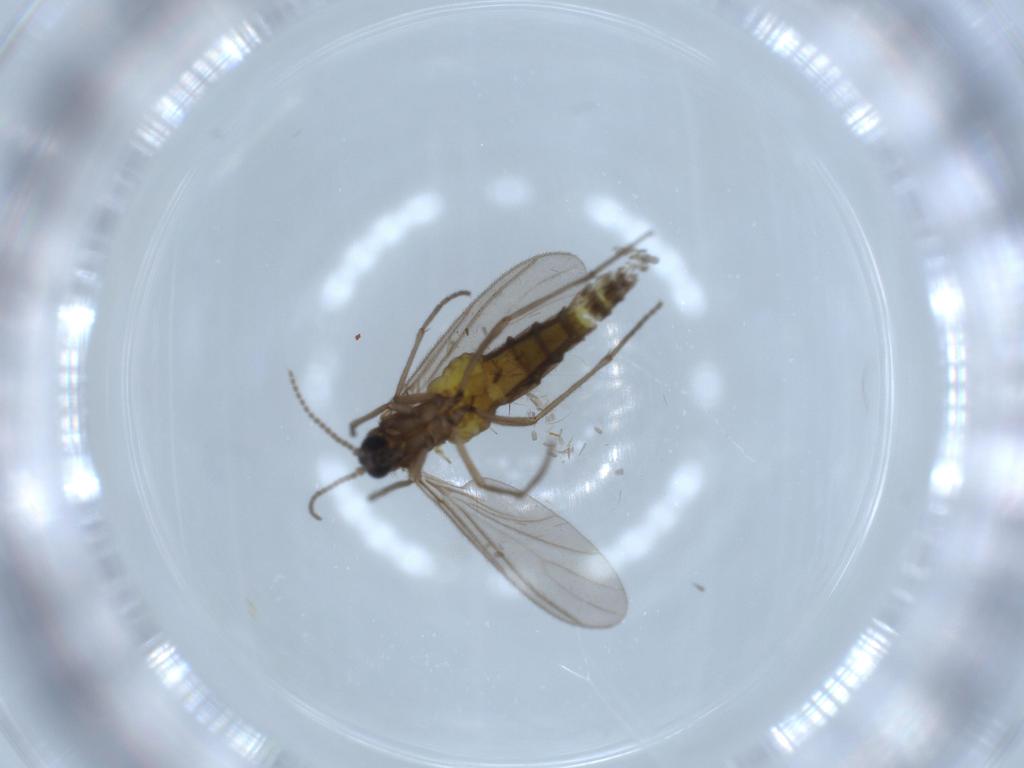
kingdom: Animalia
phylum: Arthropoda
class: Insecta
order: Diptera
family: Sciaridae
